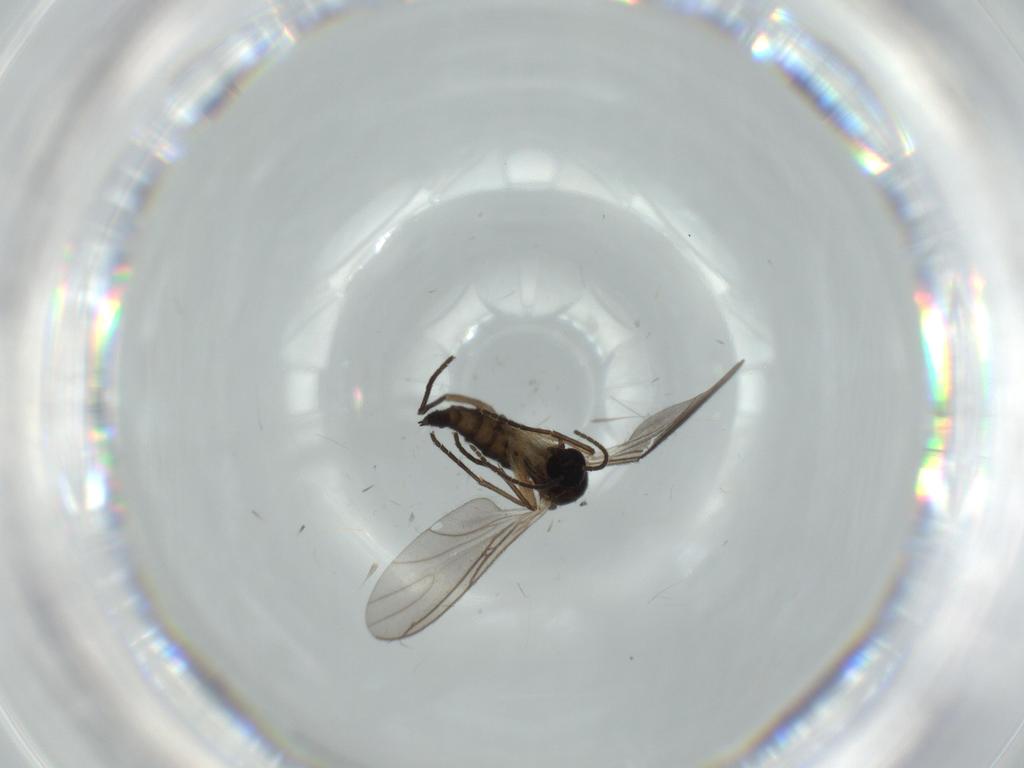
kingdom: Animalia
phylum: Arthropoda
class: Insecta
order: Diptera
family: Sciaridae
